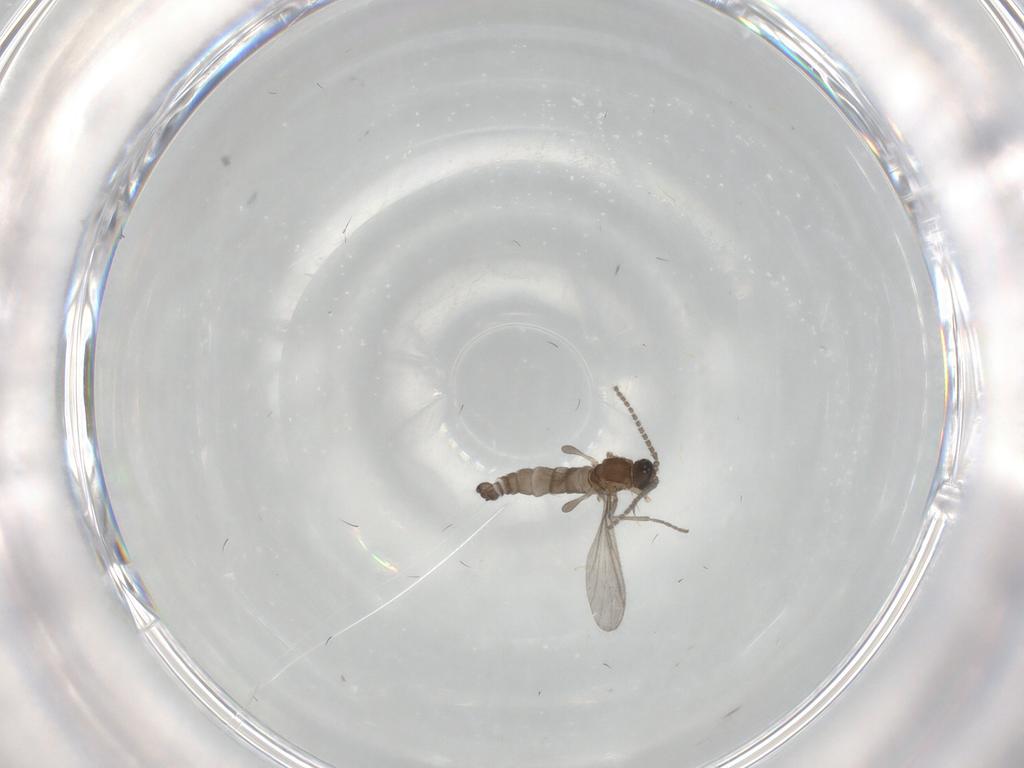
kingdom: Animalia
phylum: Arthropoda
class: Insecta
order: Diptera
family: Sciaridae
